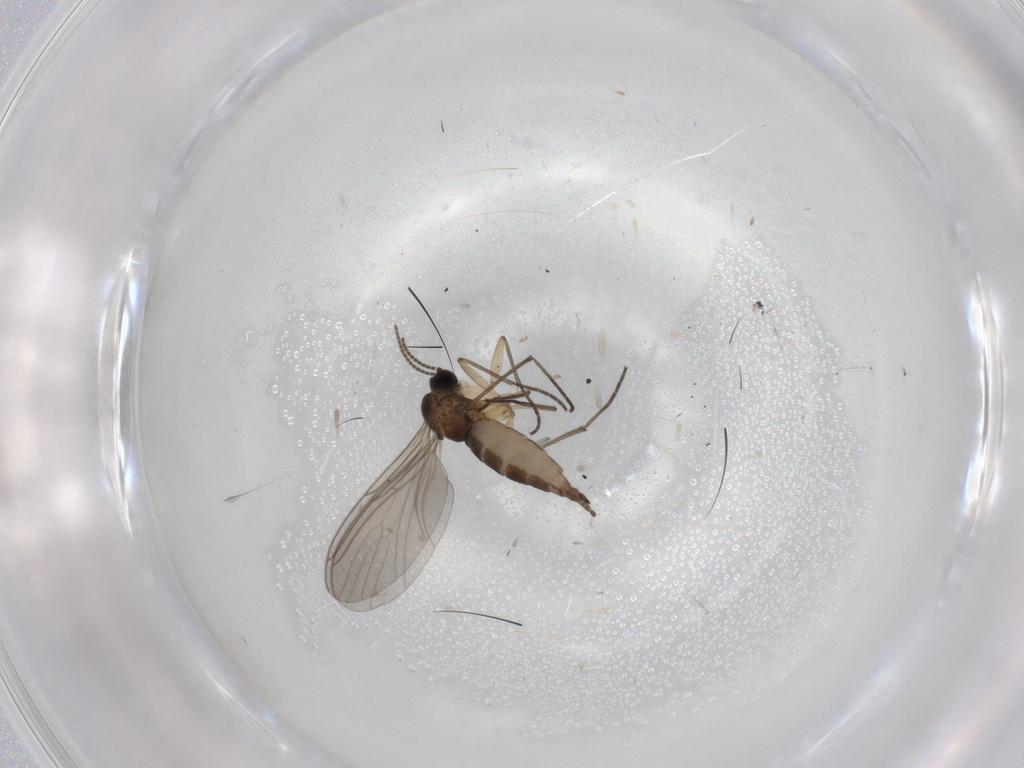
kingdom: Animalia
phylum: Arthropoda
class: Insecta
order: Diptera
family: Sciaridae
